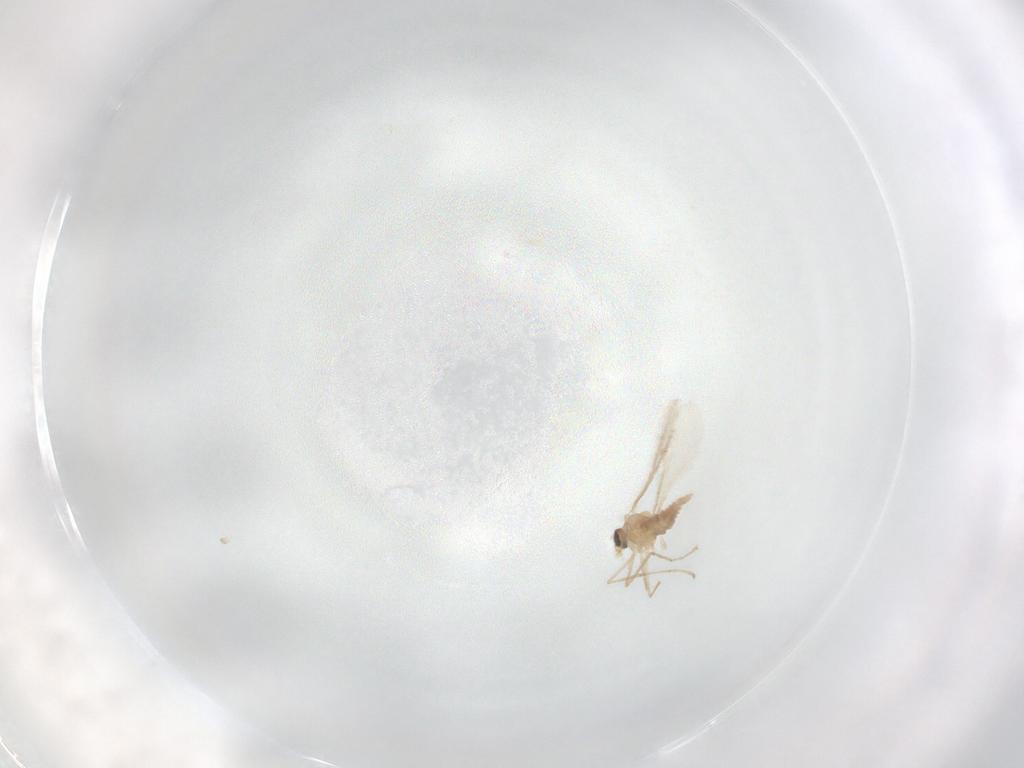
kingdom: Animalia
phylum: Arthropoda
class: Insecta
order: Diptera
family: Cecidomyiidae
